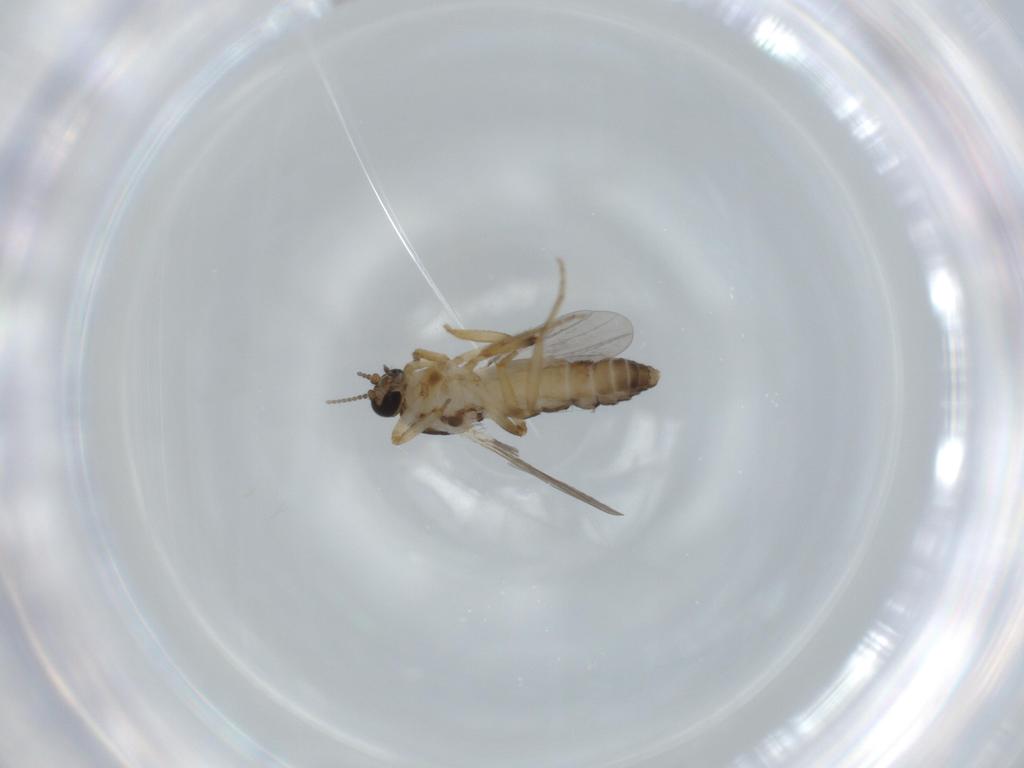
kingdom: Animalia
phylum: Arthropoda
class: Insecta
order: Diptera
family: Ceratopogonidae
